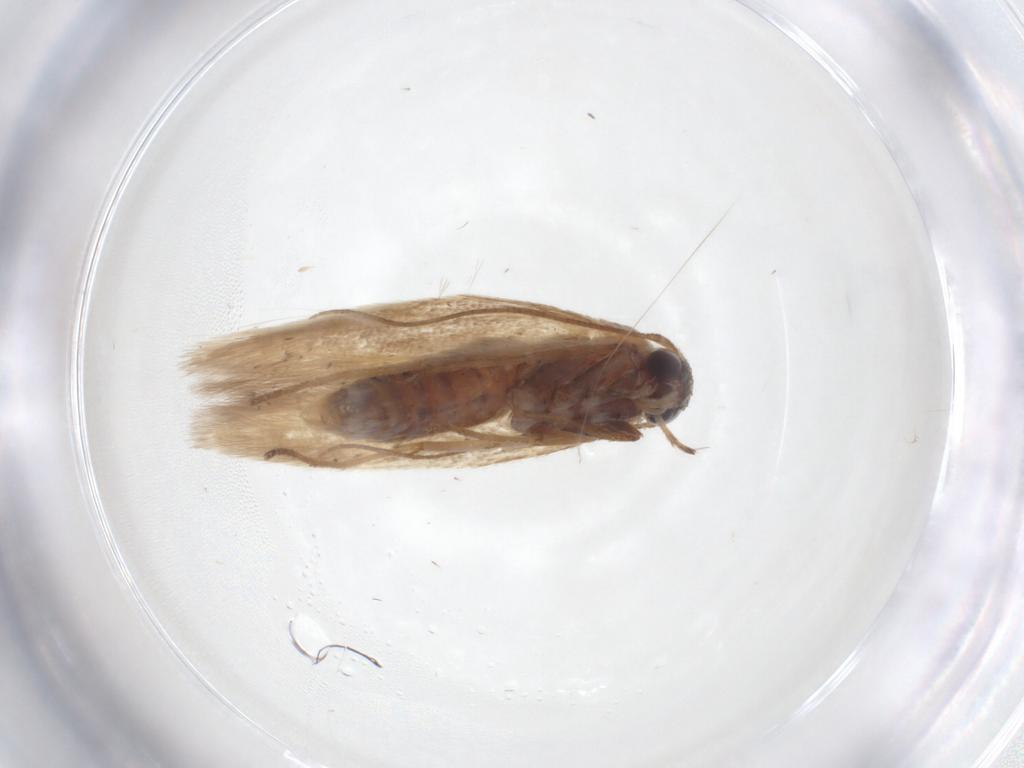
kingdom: Animalia
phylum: Arthropoda
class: Insecta
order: Lepidoptera
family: Scythrididae
